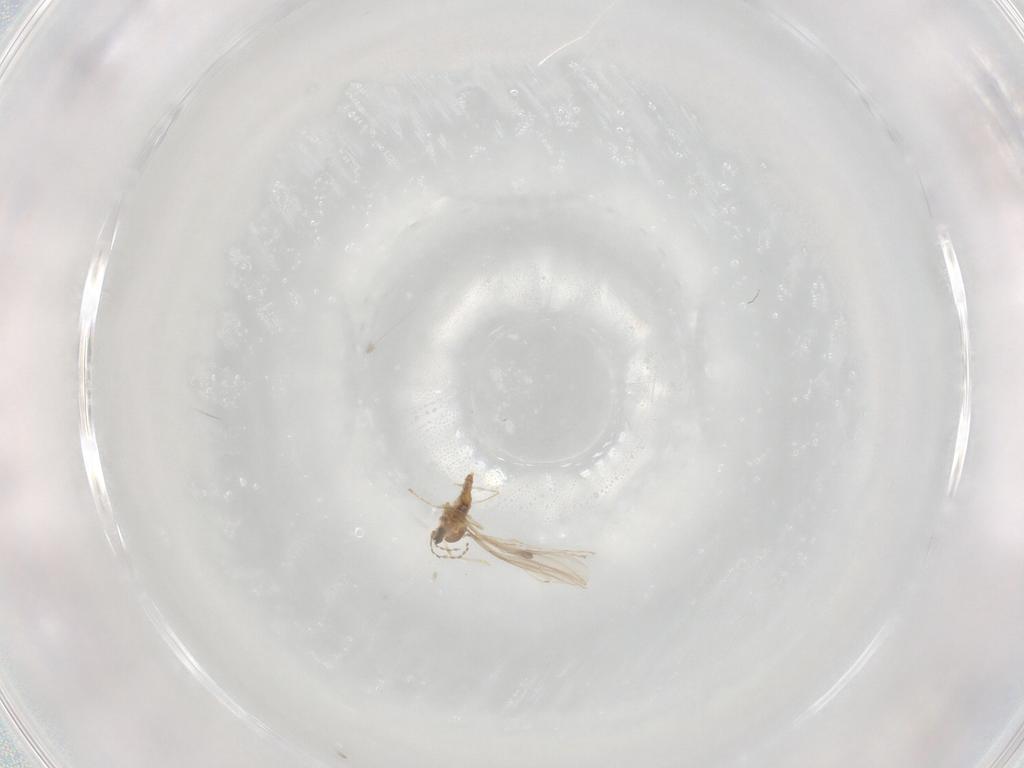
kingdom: Animalia
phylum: Arthropoda
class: Insecta
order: Diptera
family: Cecidomyiidae
